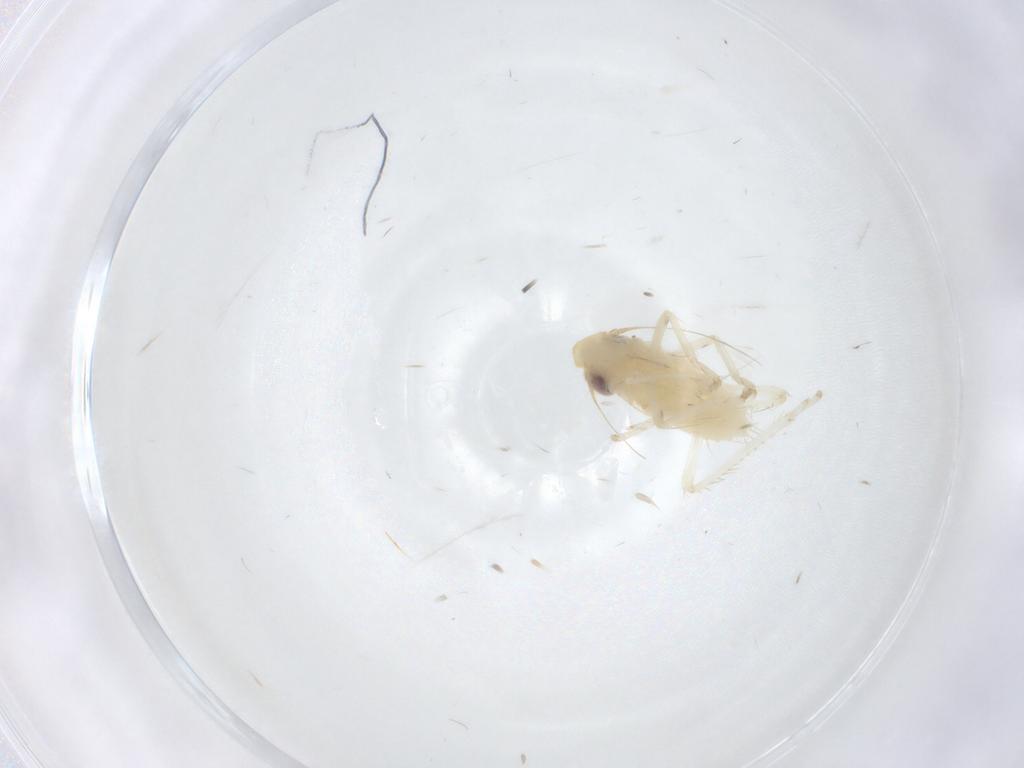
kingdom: Animalia
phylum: Arthropoda
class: Insecta
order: Hemiptera
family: Cicadellidae
